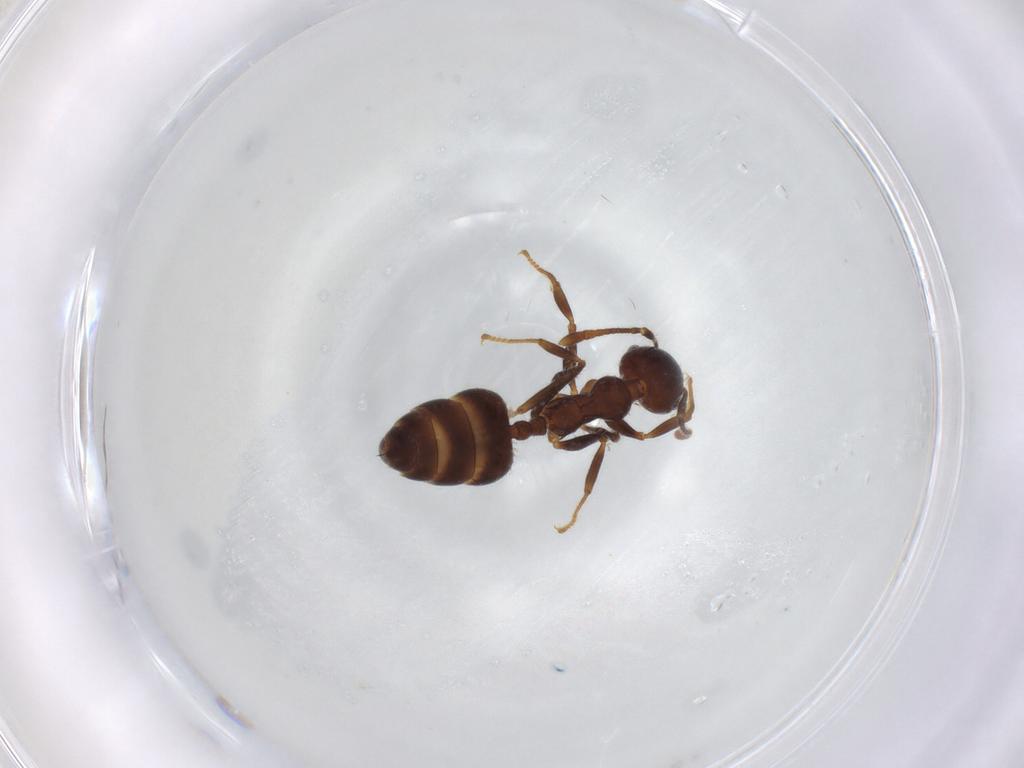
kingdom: Animalia
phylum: Arthropoda
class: Insecta
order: Hymenoptera
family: Formicidae
